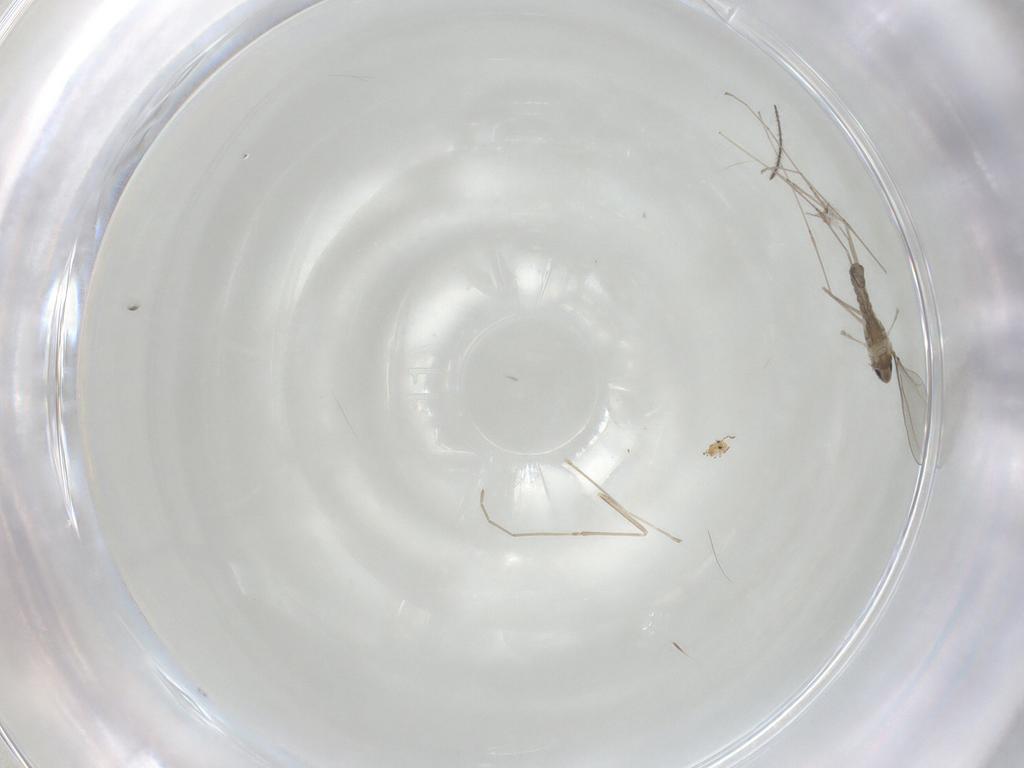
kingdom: Animalia
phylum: Arthropoda
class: Insecta
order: Diptera
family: Cecidomyiidae
